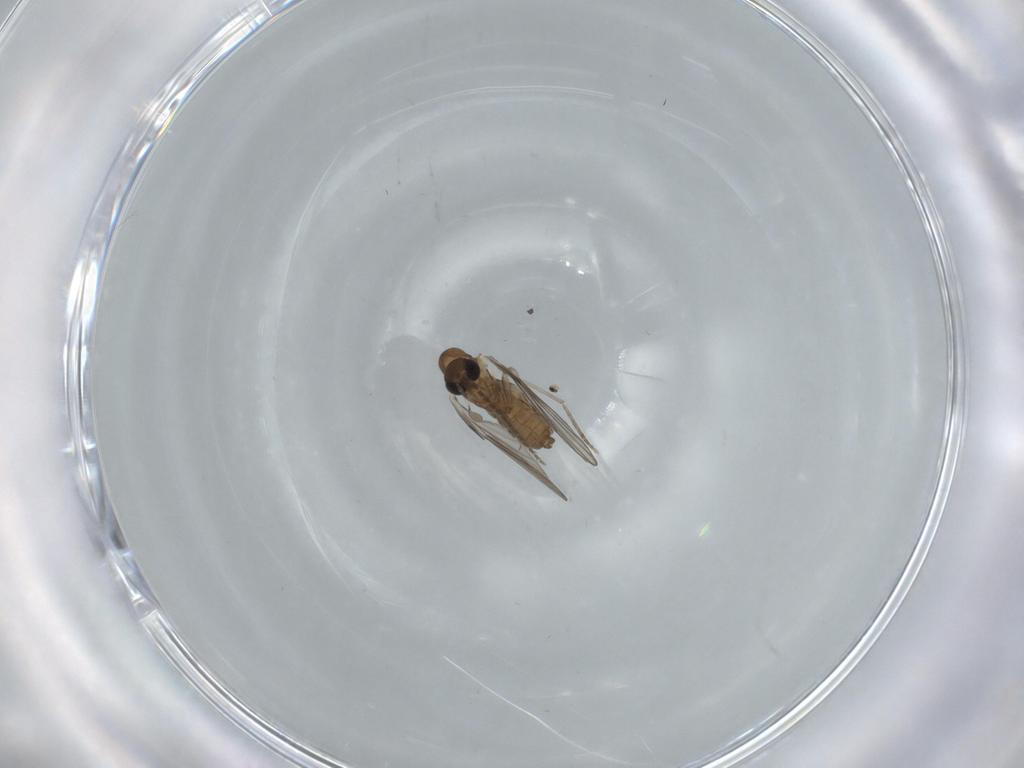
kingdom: Animalia
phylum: Arthropoda
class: Insecta
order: Diptera
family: Psychodidae
